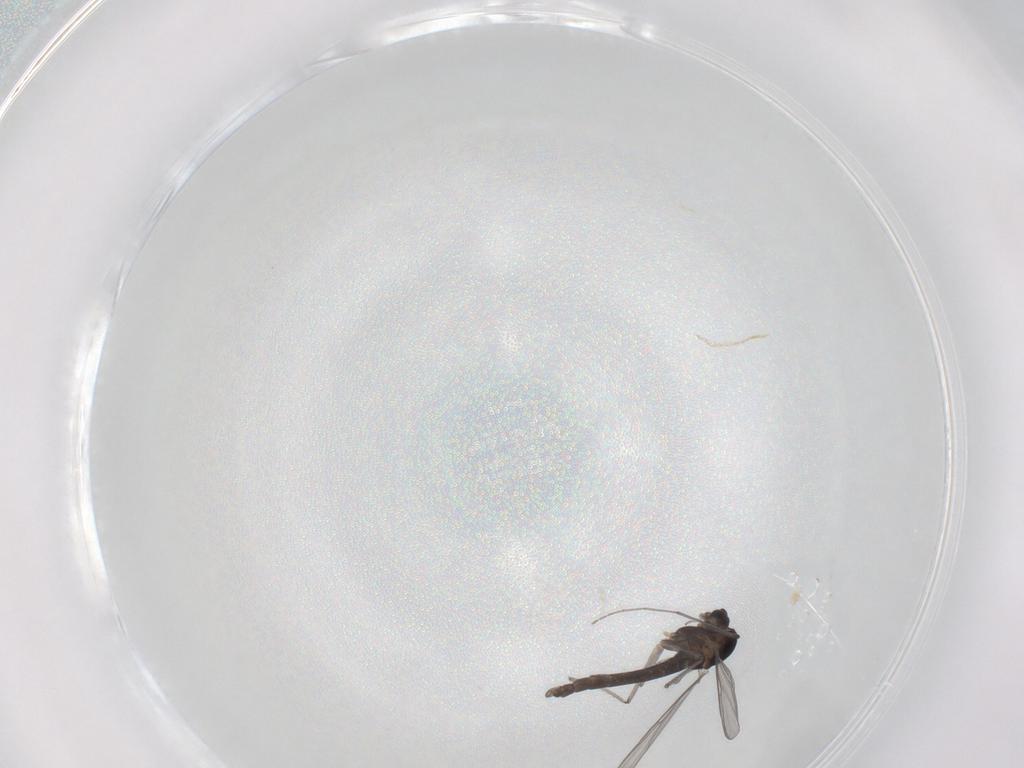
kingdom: Animalia
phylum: Arthropoda
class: Insecta
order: Diptera
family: Chironomidae
